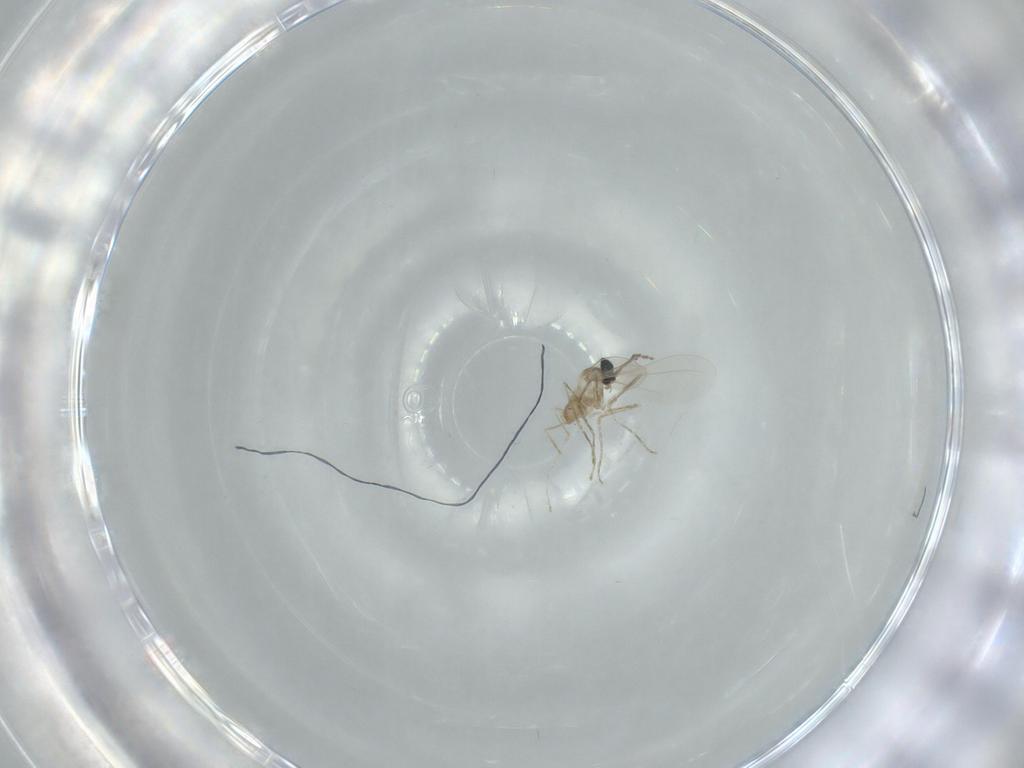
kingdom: Animalia
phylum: Arthropoda
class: Insecta
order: Diptera
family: Cecidomyiidae
